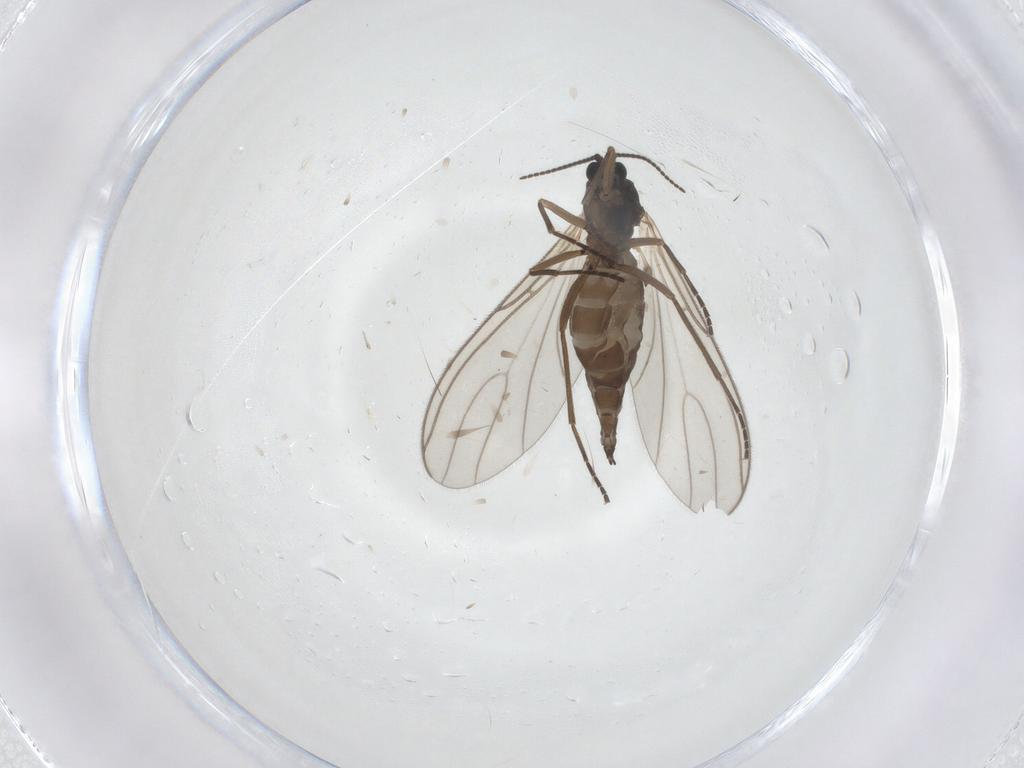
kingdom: Animalia
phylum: Arthropoda
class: Insecta
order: Diptera
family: Sciaridae
